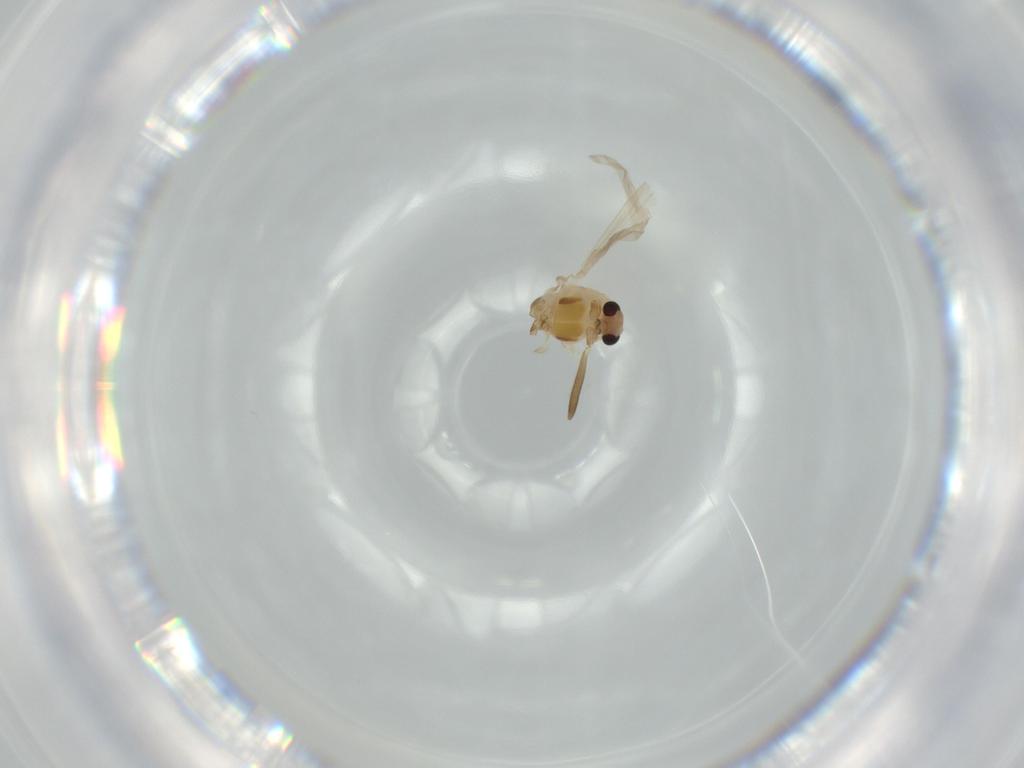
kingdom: Animalia
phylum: Arthropoda
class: Insecta
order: Diptera
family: Chironomidae
